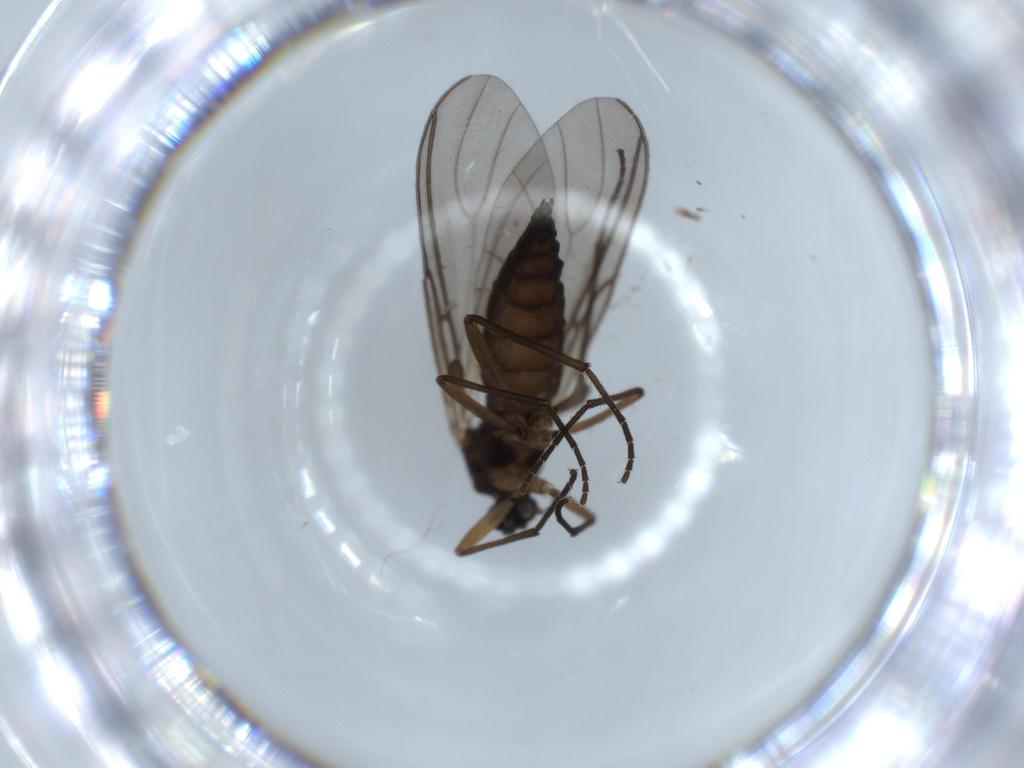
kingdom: Animalia
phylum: Arthropoda
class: Insecta
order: Diptera
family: Sciaridae
